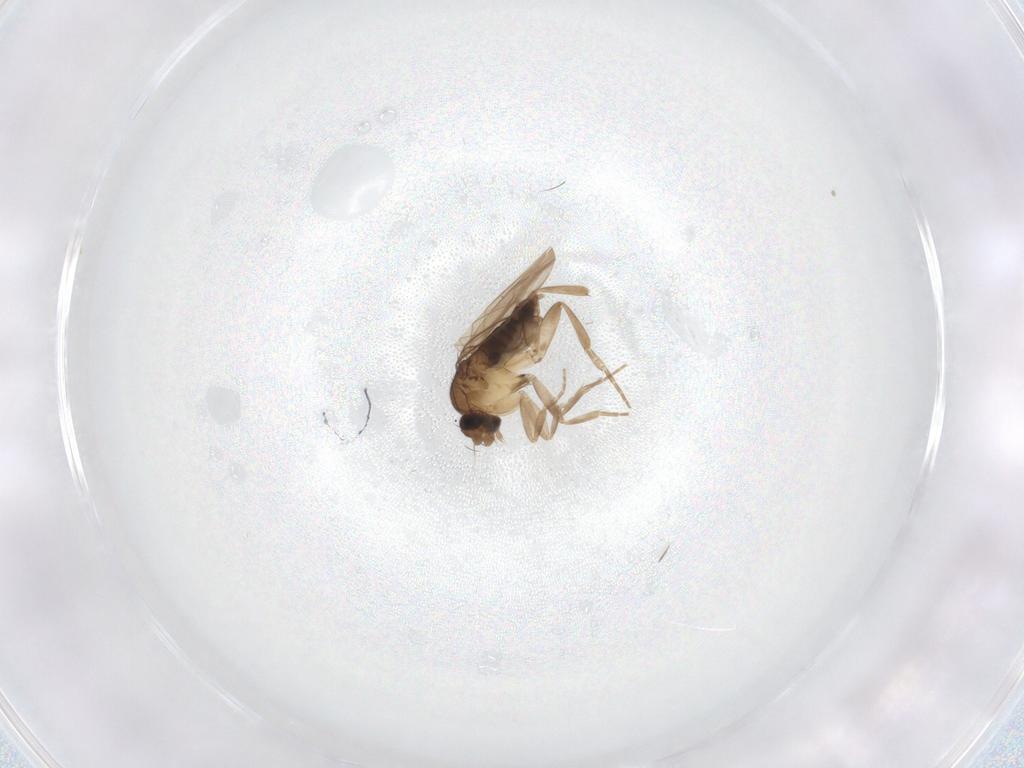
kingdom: Animalia
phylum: Arthropoda
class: Insecta
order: Diptera
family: Phoridae
